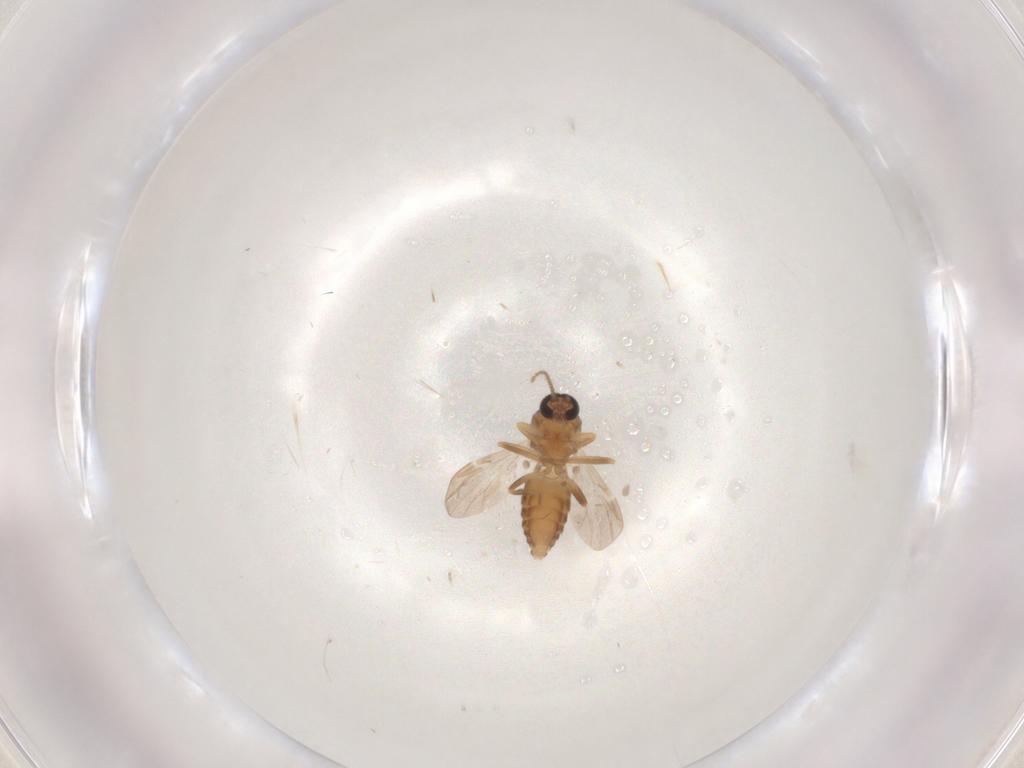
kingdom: Animalia
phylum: Arthropoda
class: Insecta
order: Diptera
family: Ceratopogonidae
